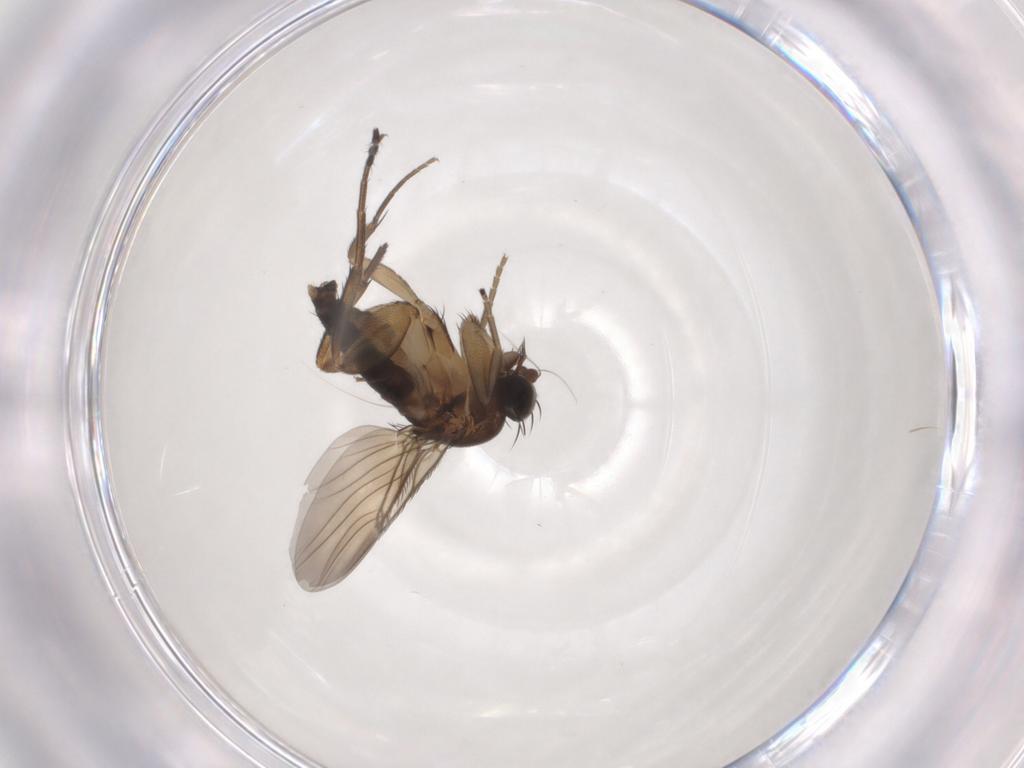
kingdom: Animalia
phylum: Arthropoda
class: Insecta
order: Diptera
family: Phoridae
